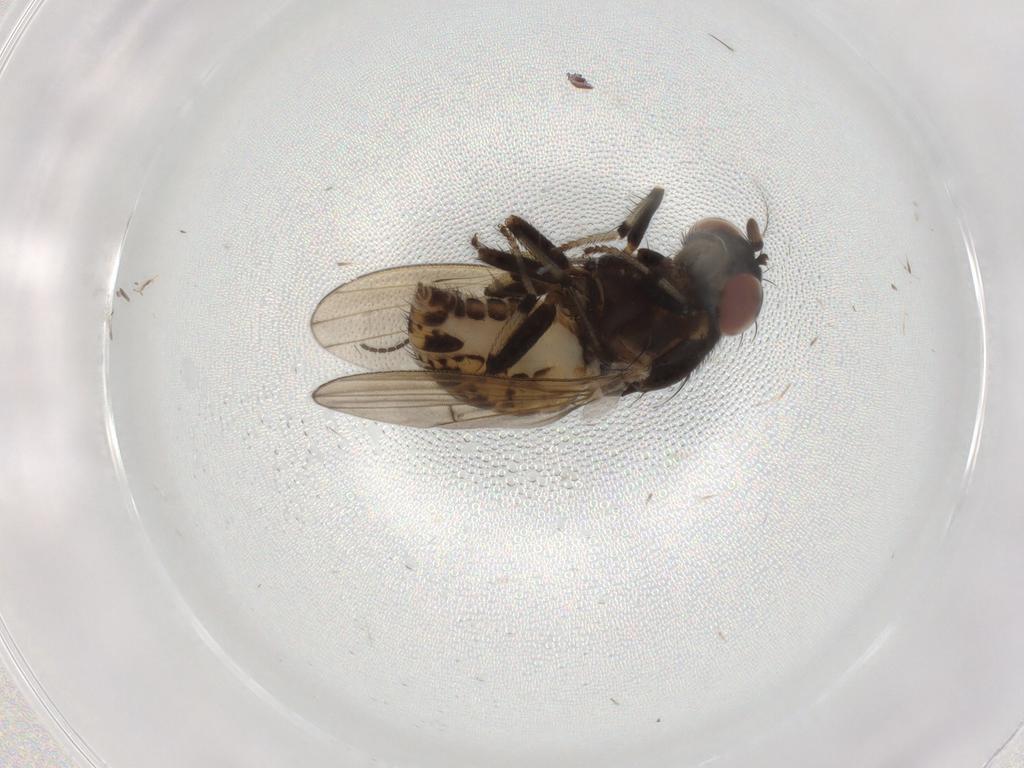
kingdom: Animalia
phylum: Arthropoda
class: Insecta
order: Diptera
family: Lauxaniidae
